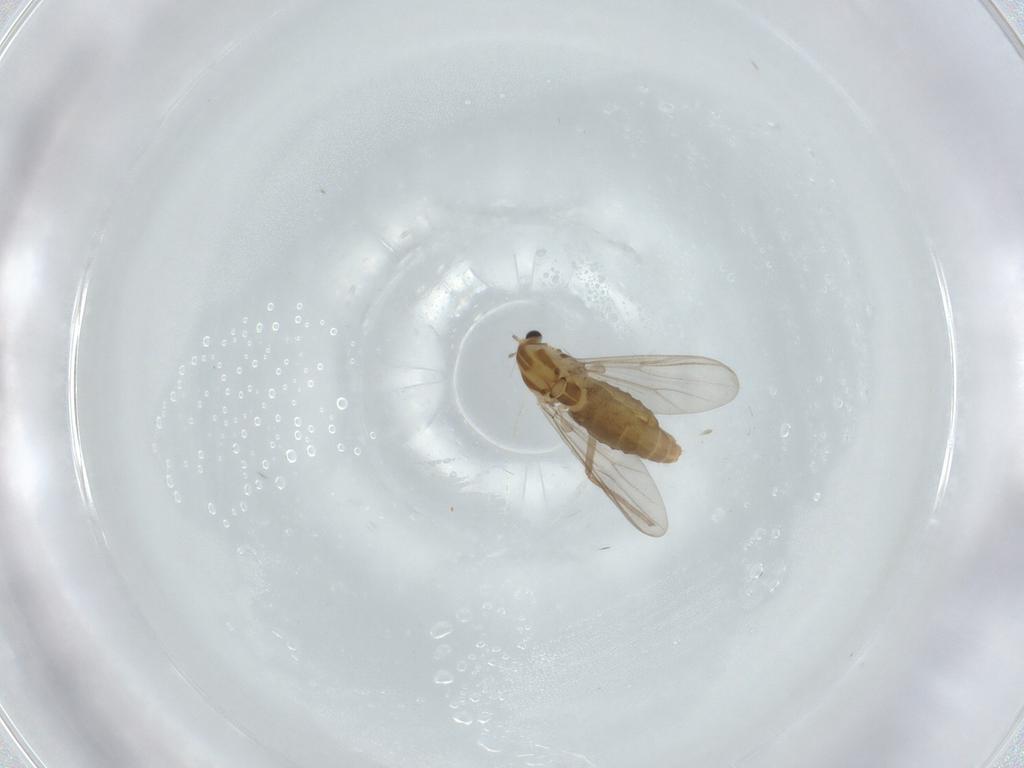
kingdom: Animalia
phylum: Arthropoda
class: Insecta
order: Diptera
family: Chironomidae
